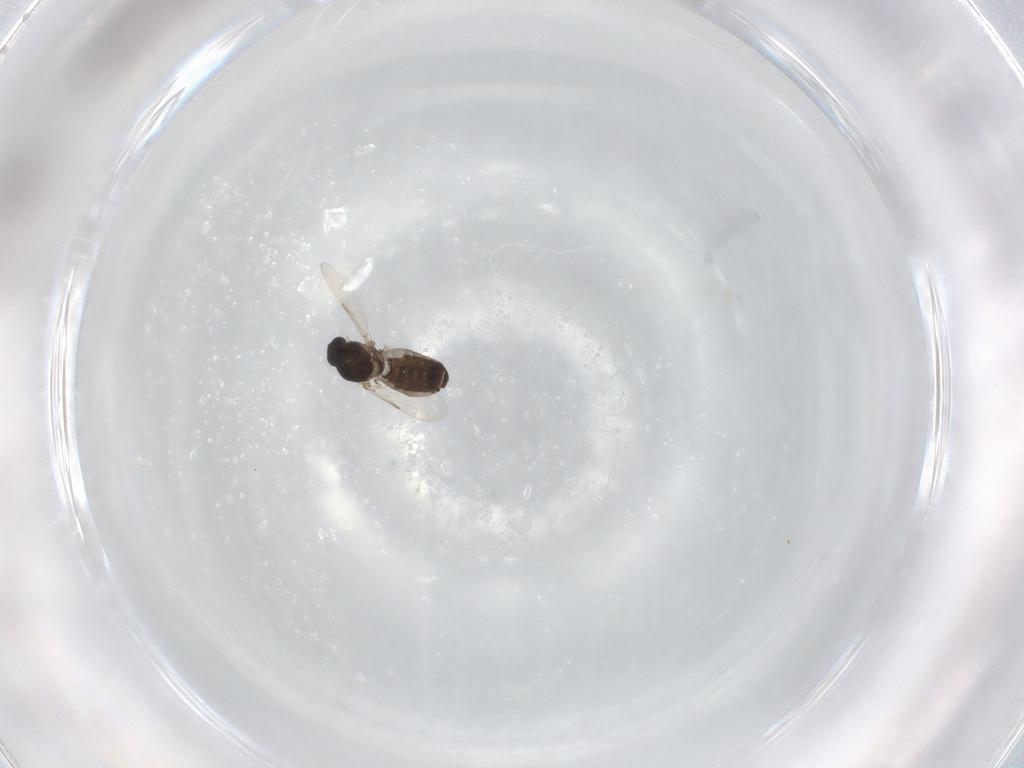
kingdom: Animalia
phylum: Arthropoda
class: Insecta
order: Diptera
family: Ceratopogonidae
